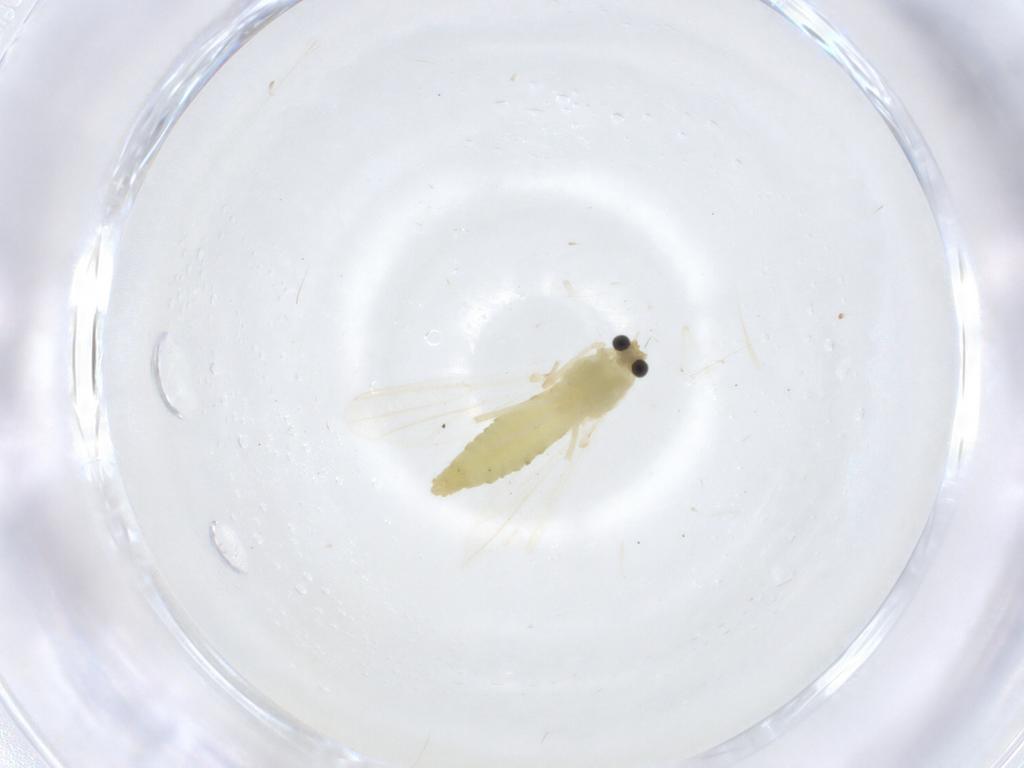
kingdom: Animalia
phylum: Arthropoda
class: Insecta
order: Diptera
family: Chironomidae
